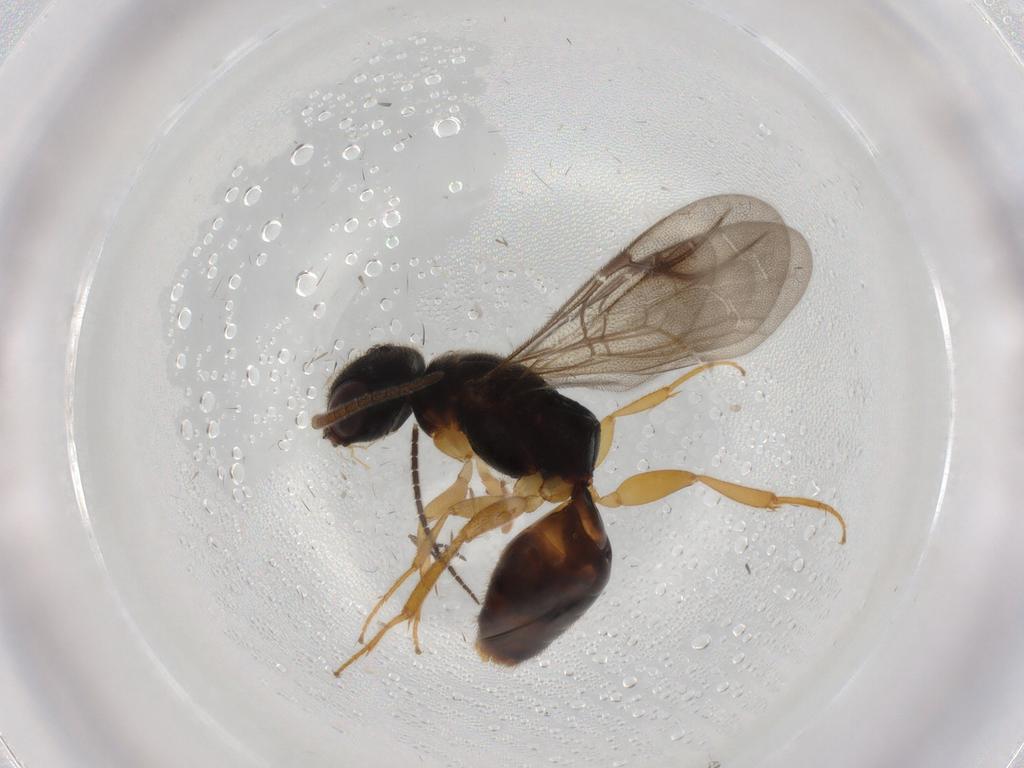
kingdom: Animalia
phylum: Arthropoda
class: Insecta
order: Hymenoptera
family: Bethylidae
